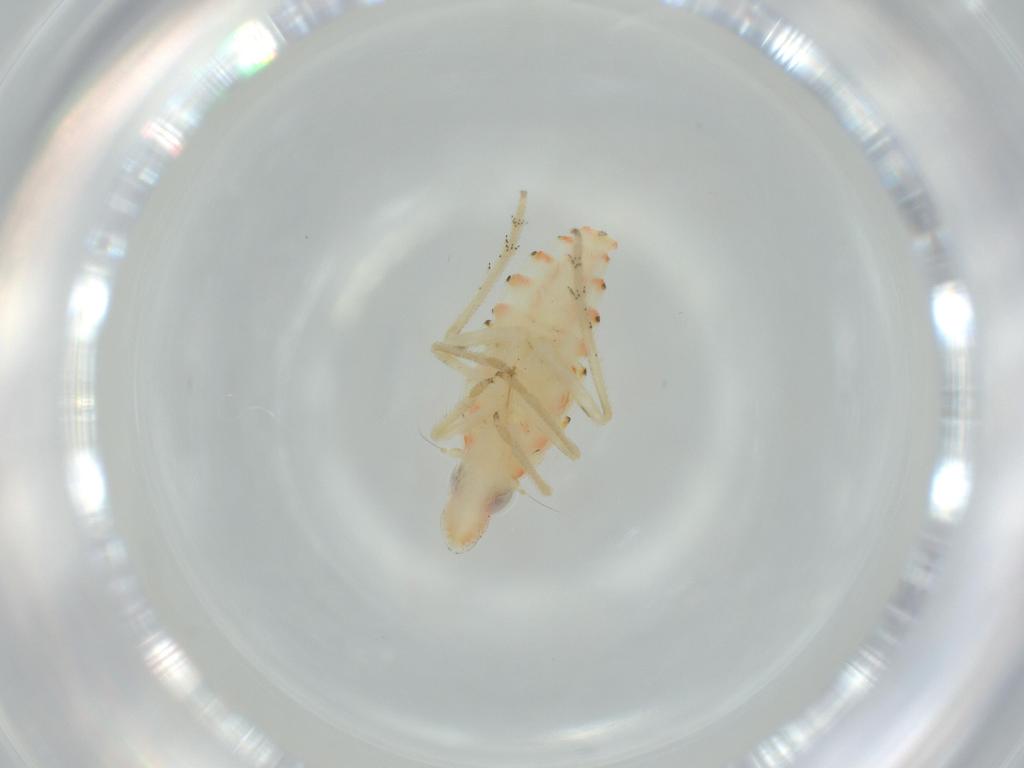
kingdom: Animalia
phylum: Arthropoda
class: Insecta
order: Hemiptera
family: Tropiduchidae
